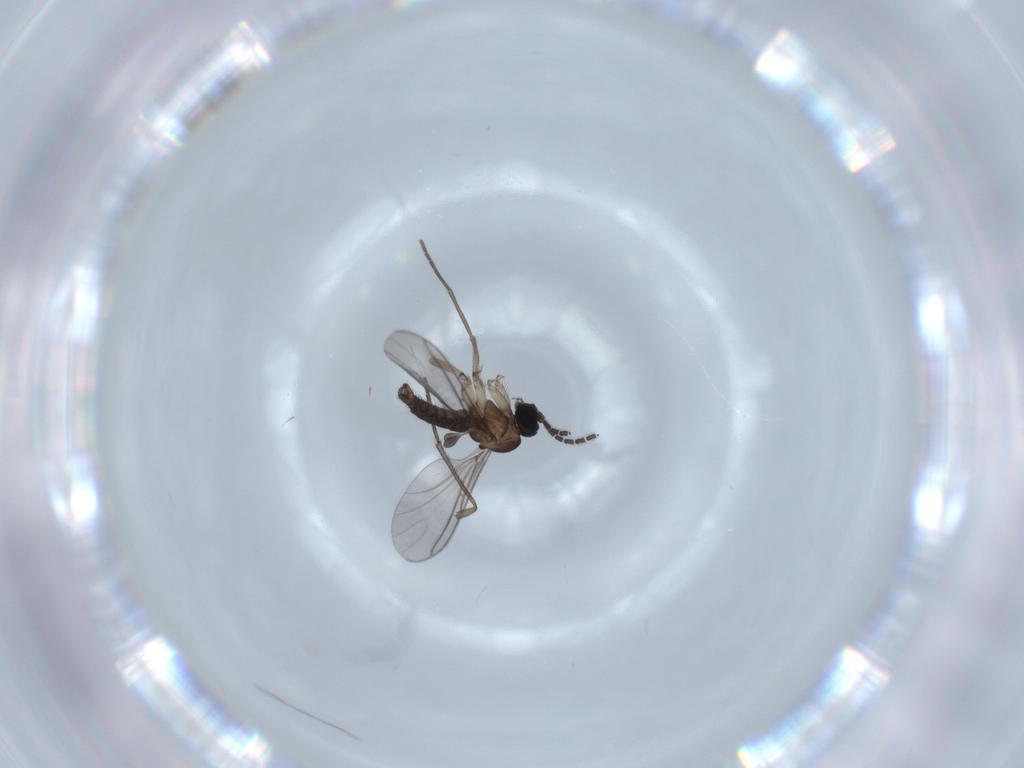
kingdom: Animalia
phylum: Arthropoda
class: Insecta
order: Diptera
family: Sciaridae
